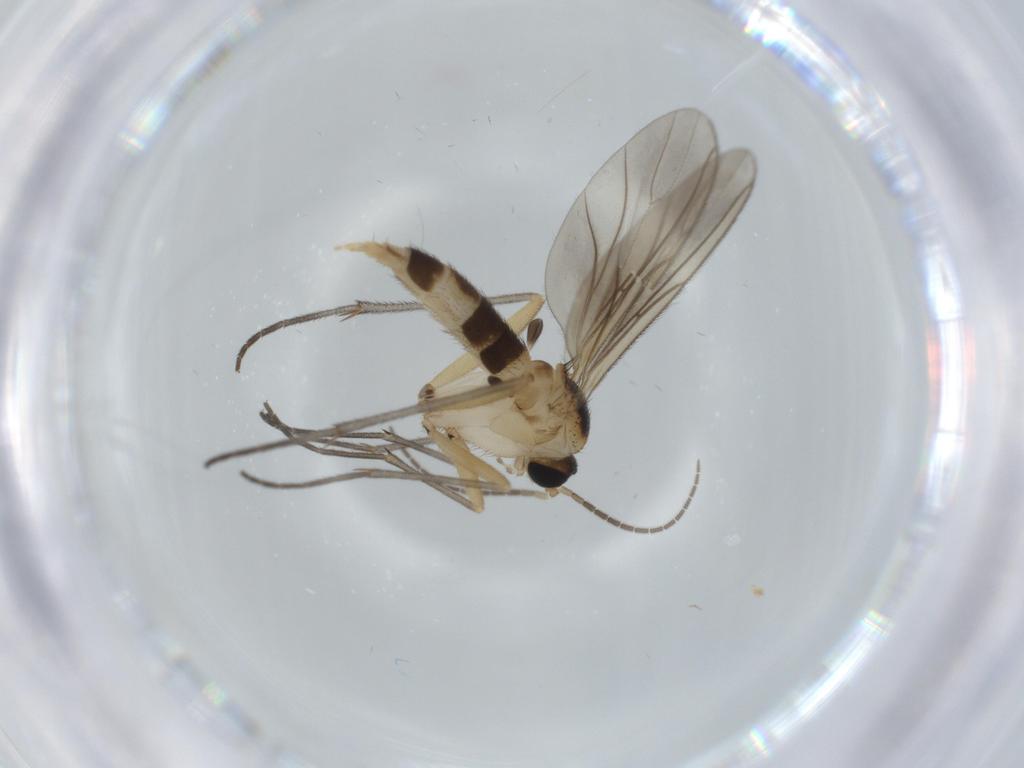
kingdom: Animalia
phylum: Arthropoda
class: Insecta
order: Diptera
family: Sciaridae
